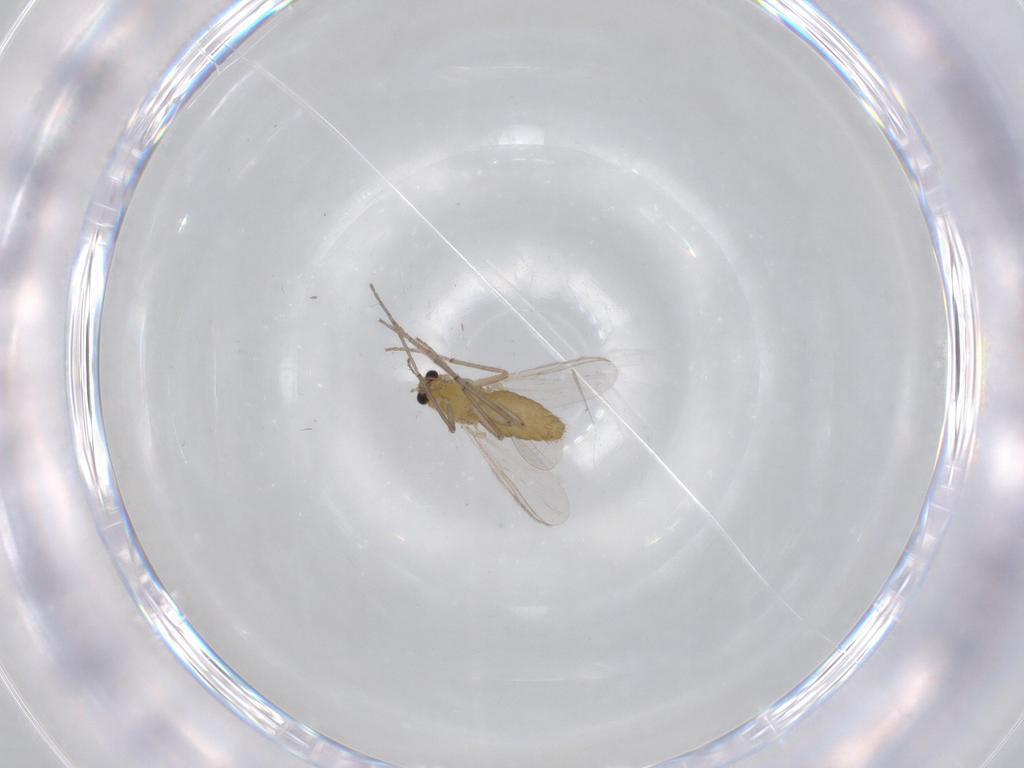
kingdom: Animalia
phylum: Arthropoda
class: Insecta
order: Diptera
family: Chironomidae
